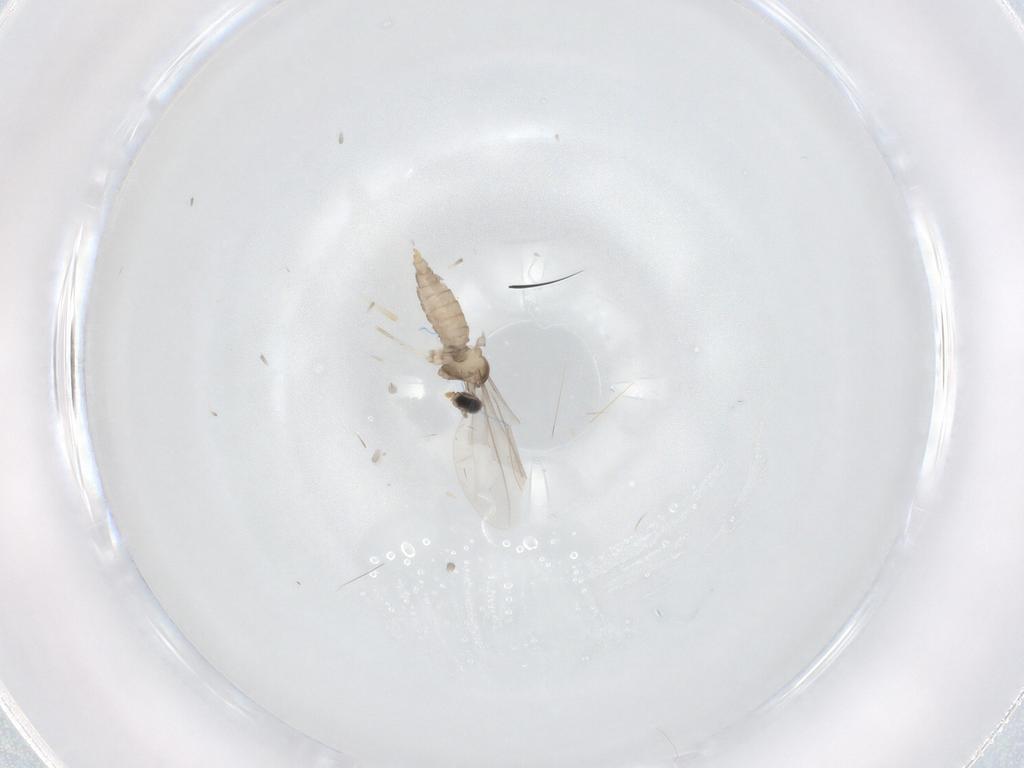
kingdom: Animalia
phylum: Arthropoda
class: Insecta
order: Diptera
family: Cecidomyiidae
